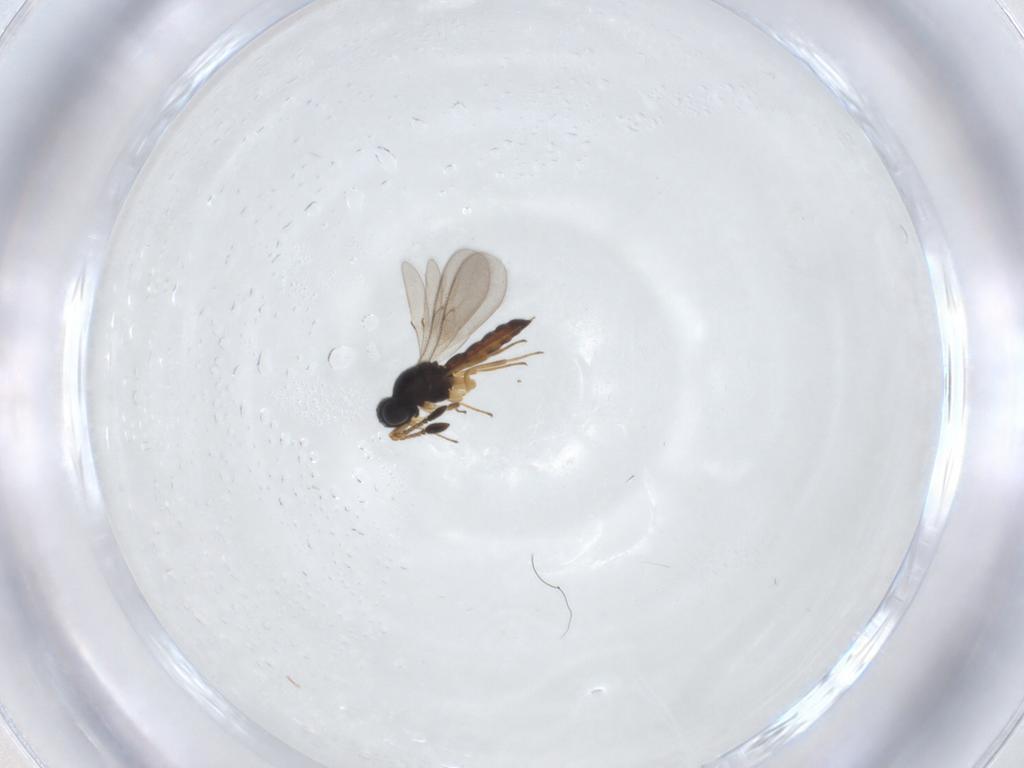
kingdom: Animalia
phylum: Arthropoda
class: Insecta
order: Hymenoptera
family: Scelionidae
